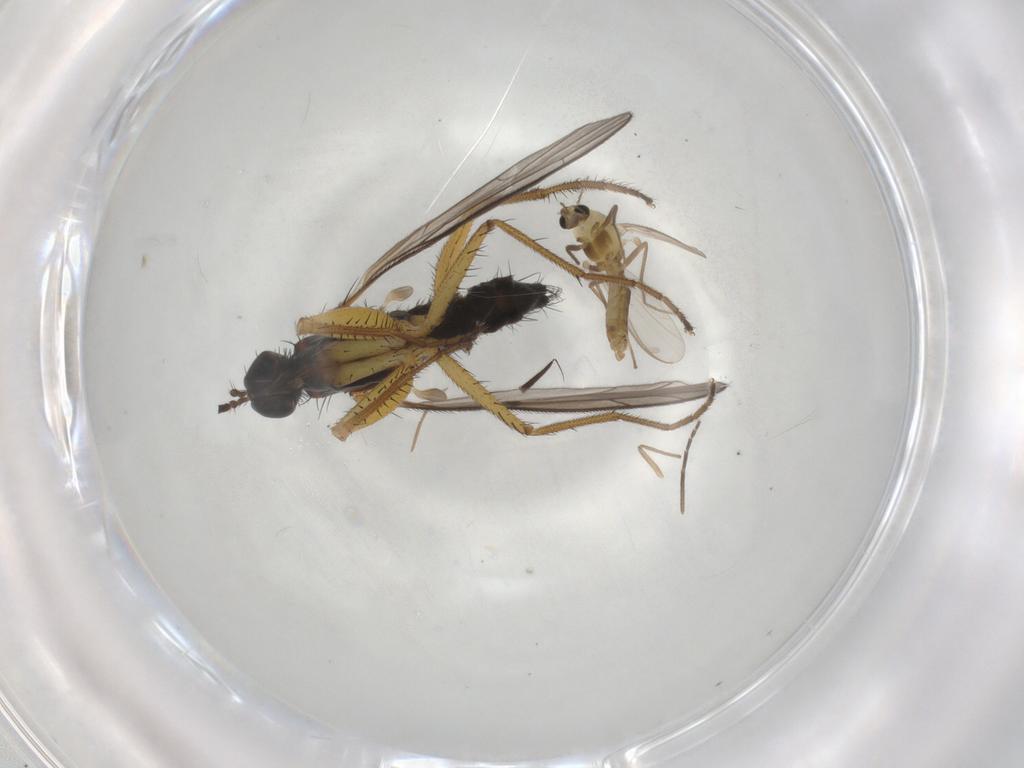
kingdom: Animalia
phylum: Arthropoda
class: Insecta
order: Diptera
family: Chironomidae
